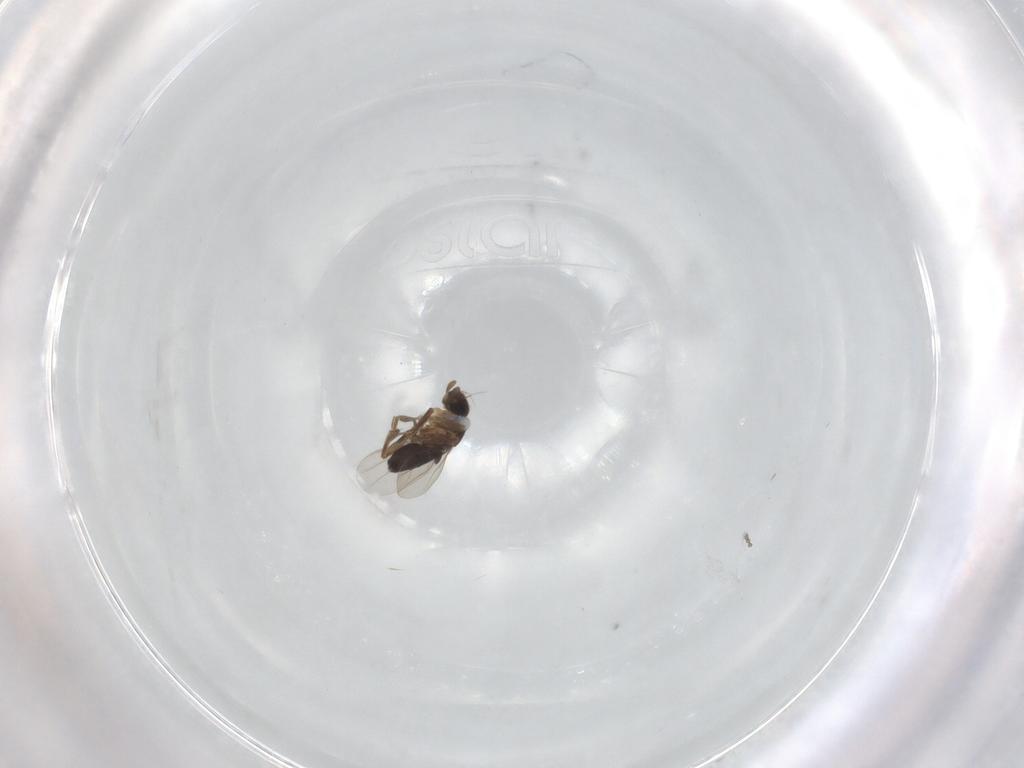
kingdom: Animalia
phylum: Arthropoda
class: Insecta
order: Diptera
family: Phoridae
